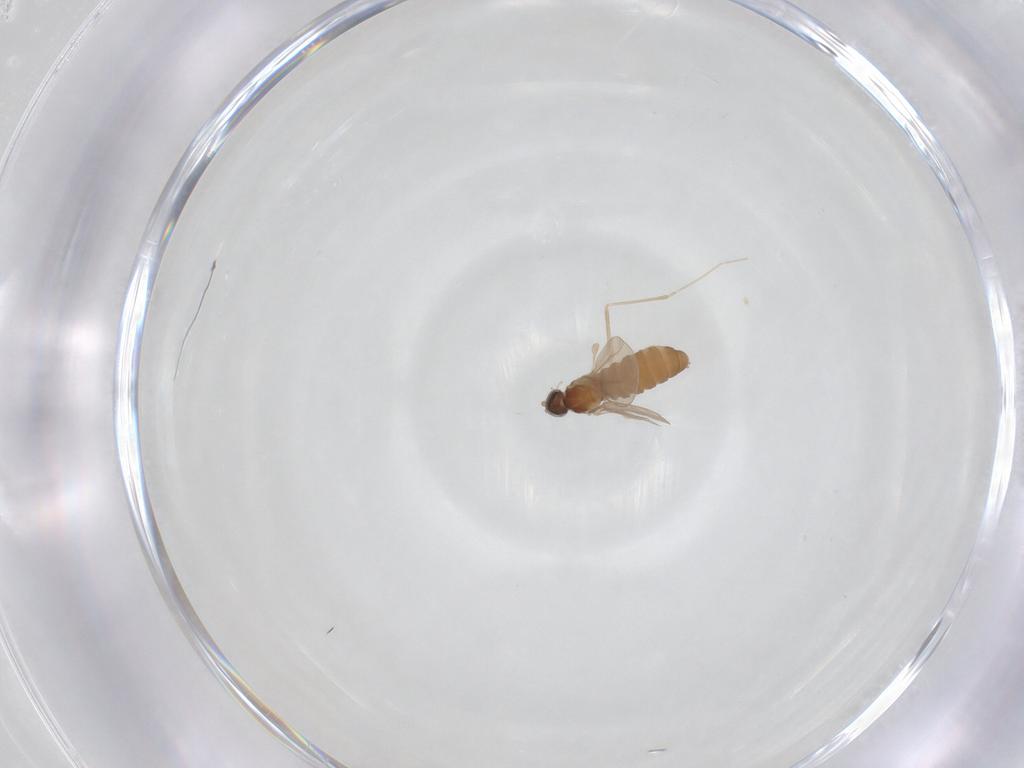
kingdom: Animalia
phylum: Arthropoda
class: Insecta
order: Diptera
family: Cecidomyiidae
